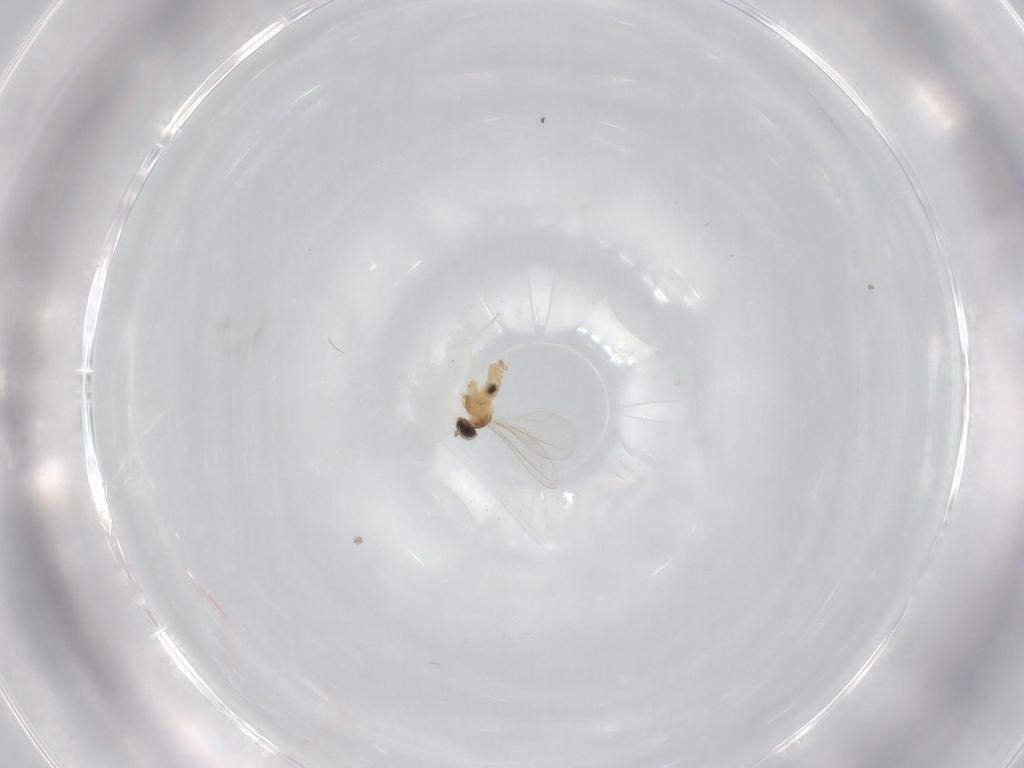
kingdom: Animalia
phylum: Arthropoda
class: Insecta
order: Diptera
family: Cecidomyiidae
